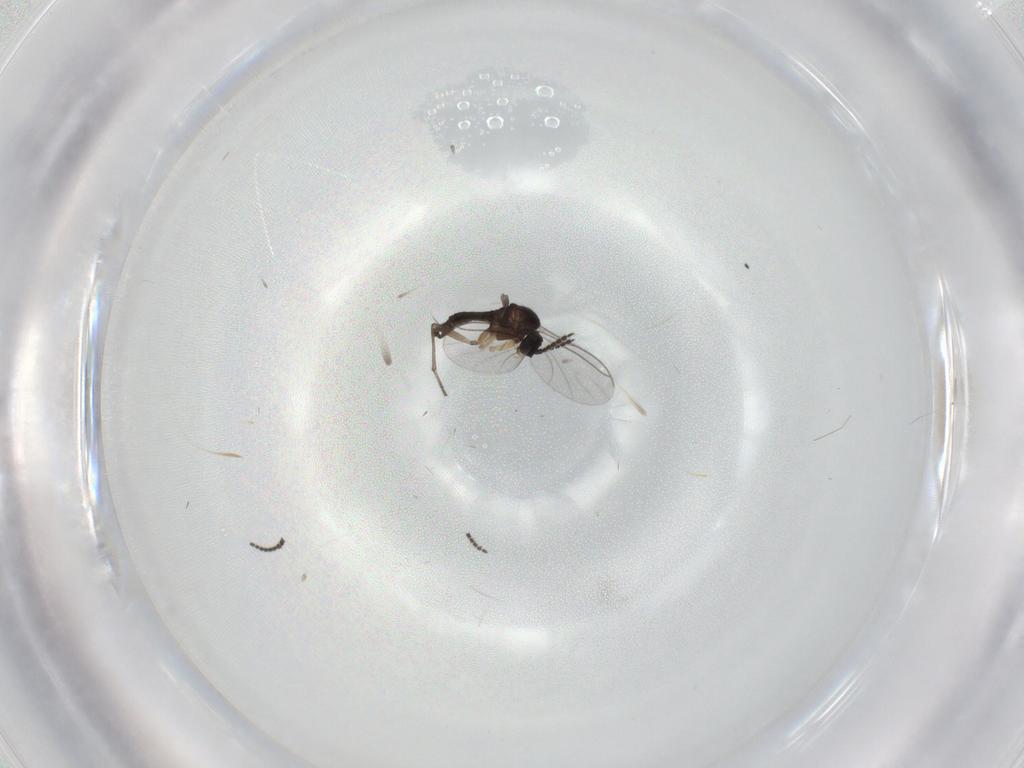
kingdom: Animalia
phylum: Arthropoda
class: Insecta
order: Diptera
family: Sciaridae
